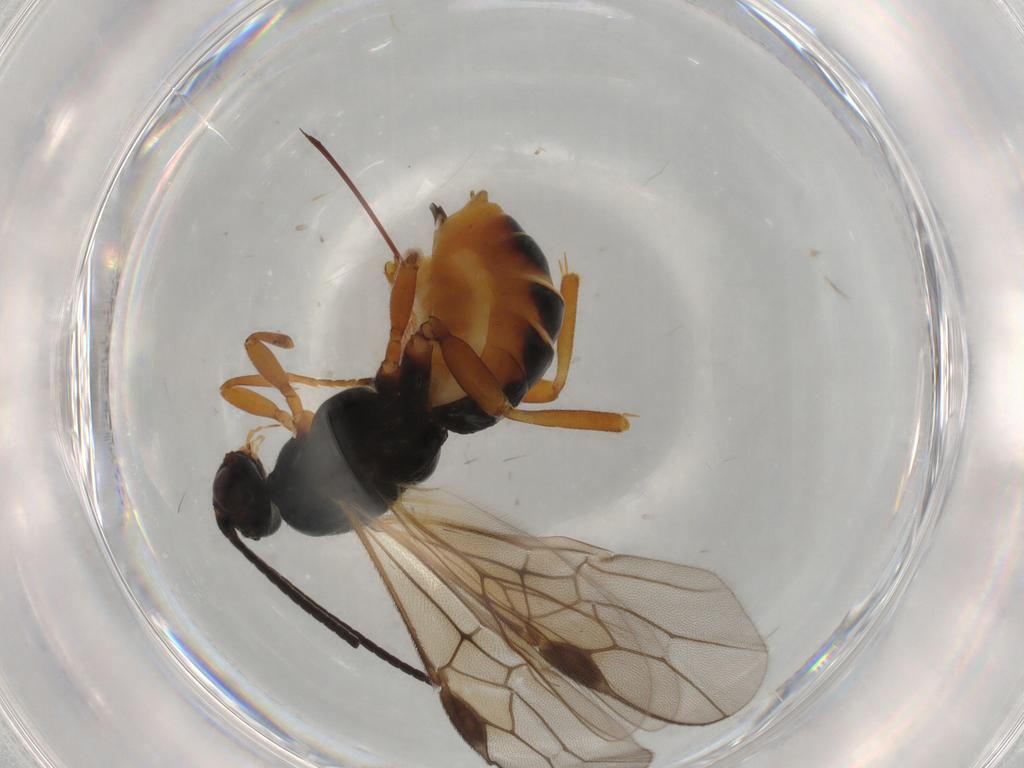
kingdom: Animalia
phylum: Arthropoda
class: Insecta
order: Hymenoptera
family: Braconidae
